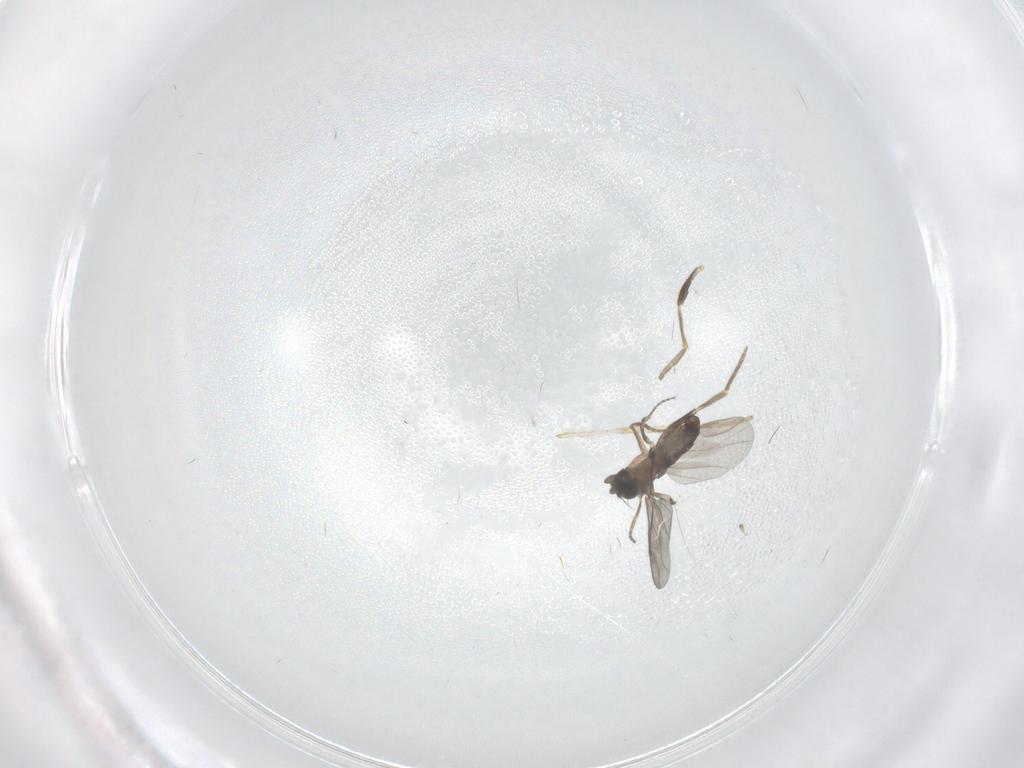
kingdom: Animalia
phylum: Arthropoda
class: Insecta
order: Diptera
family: Chironomidae
